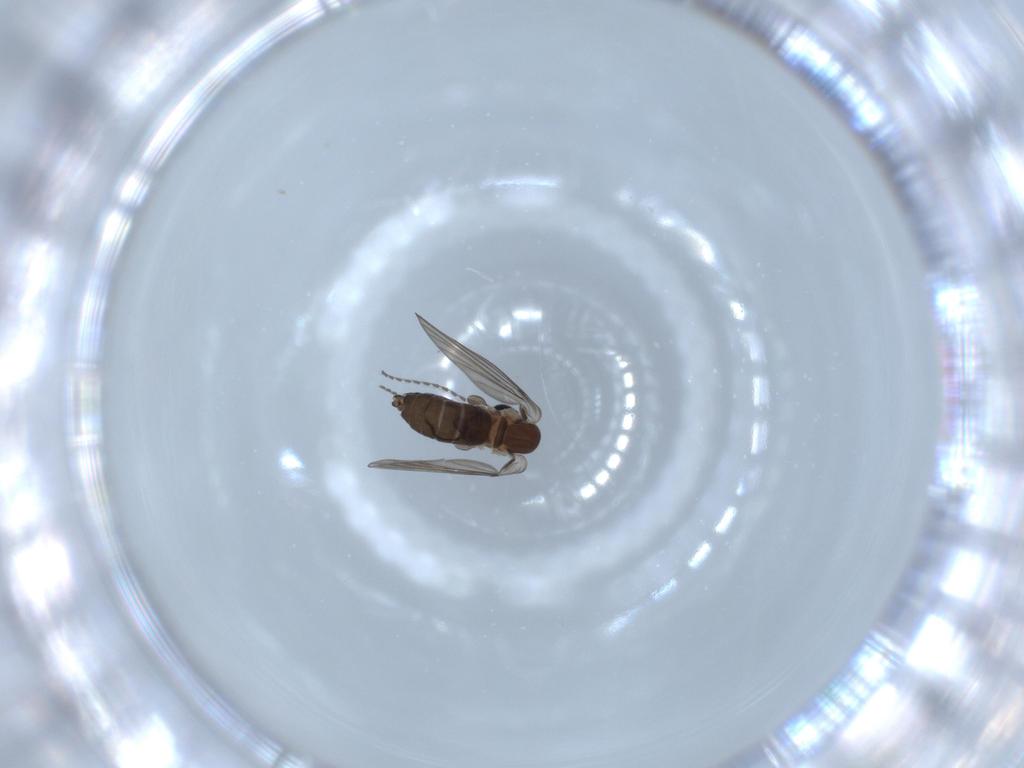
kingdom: Animalia
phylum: Arthropoda
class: Insecta
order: Diptera
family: Psychodidae
